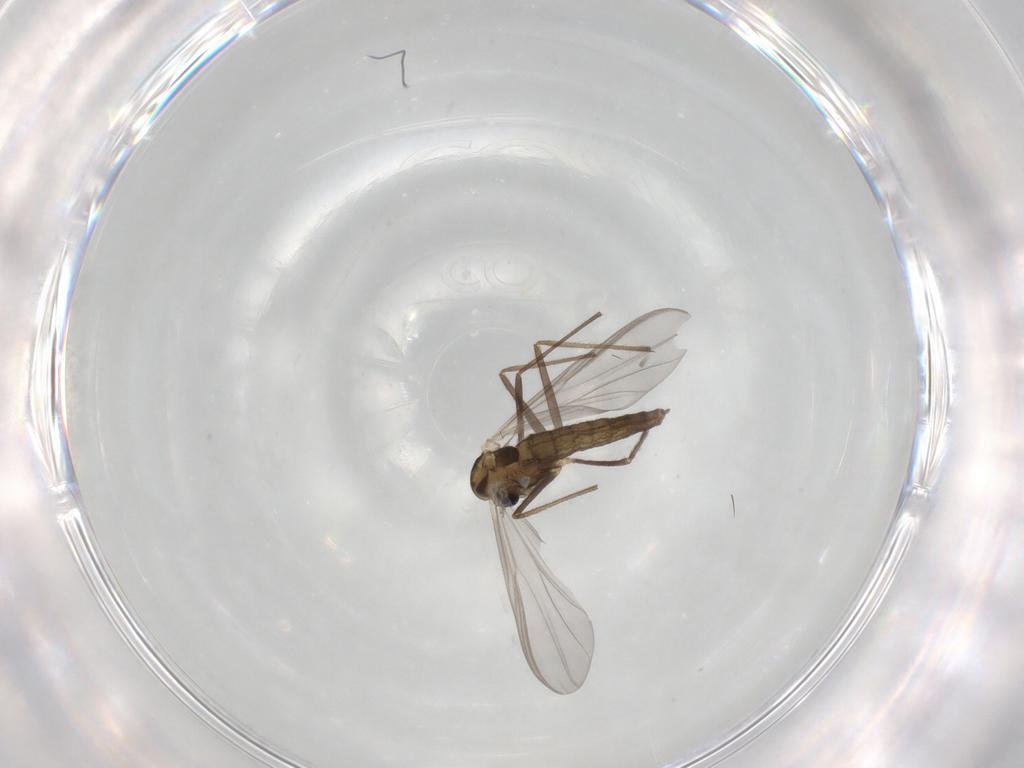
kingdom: Animalia
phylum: Arthropoda
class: Insecta
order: Diptera
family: Chironomidae
